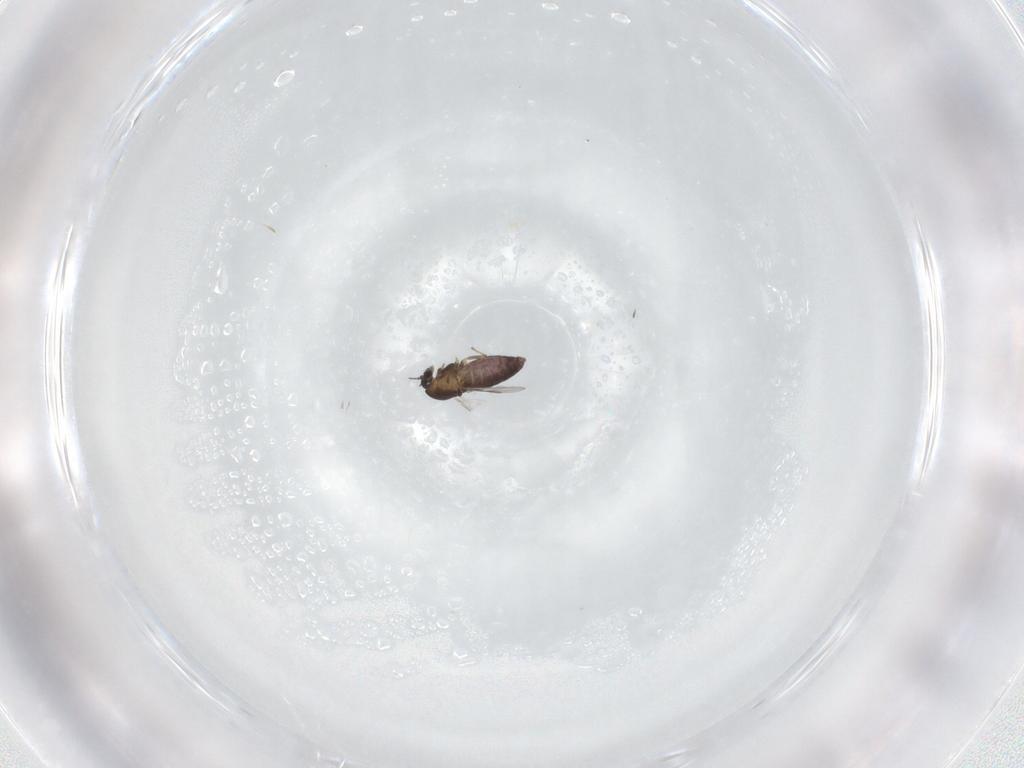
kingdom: Animalia
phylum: Arthropoda
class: Insecta
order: Diptera
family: Chironomidae
